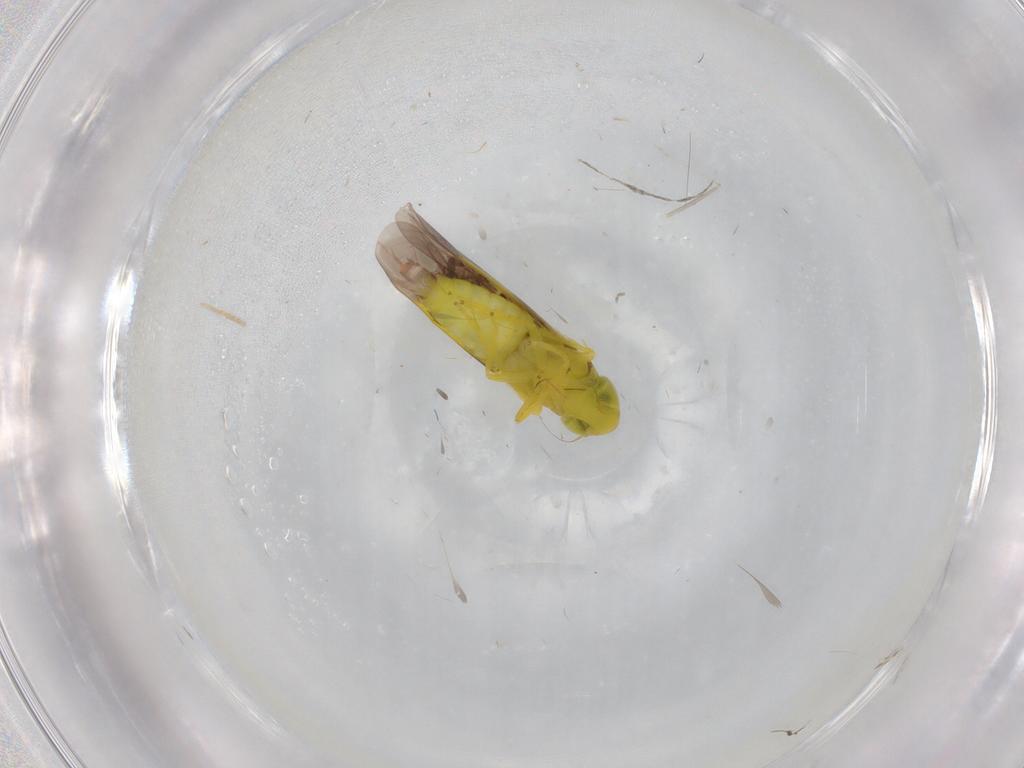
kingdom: Animalia
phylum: Arthropoda
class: Insecta
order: Hemiptera
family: Cicadellidae
